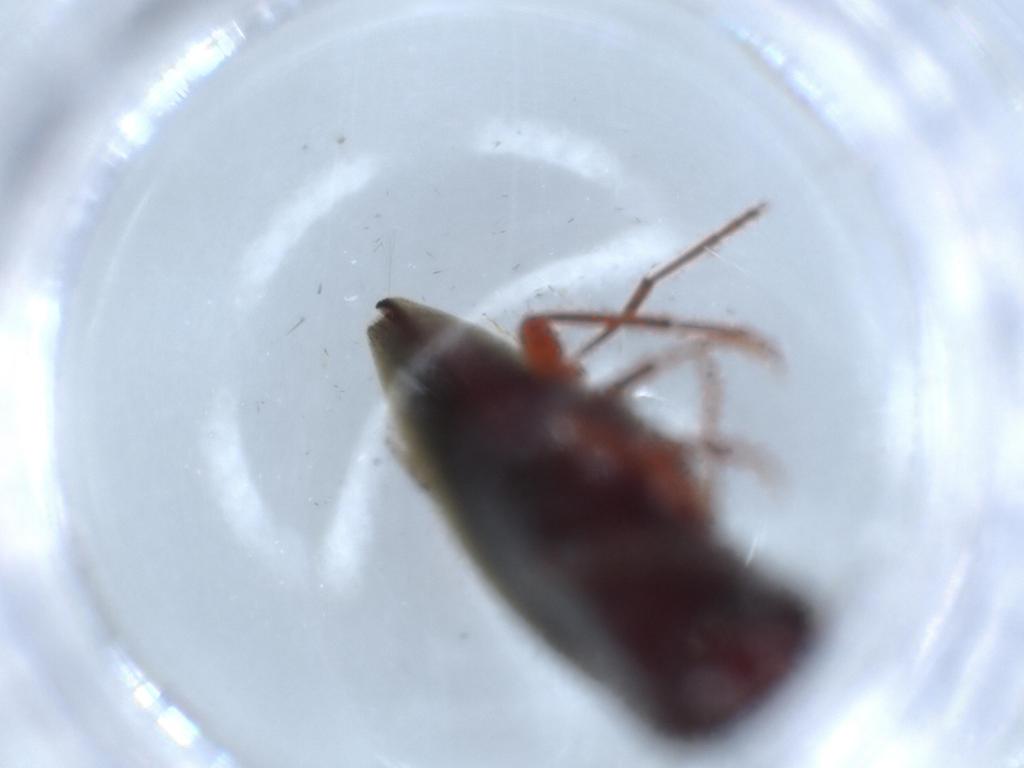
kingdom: Animalia
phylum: Arthropoda
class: Insecta
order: Coleoptera
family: Eucnemidae
